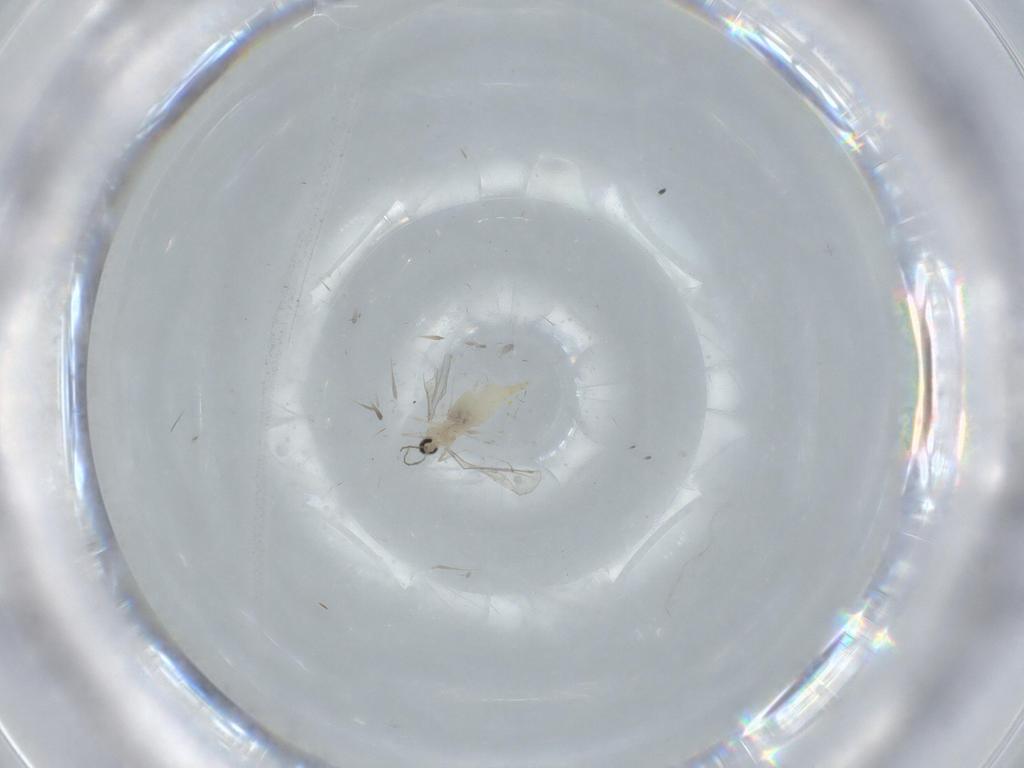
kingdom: Animalia
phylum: Arthropoda
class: Insecta
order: Diptera
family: Cecidomyiidae
